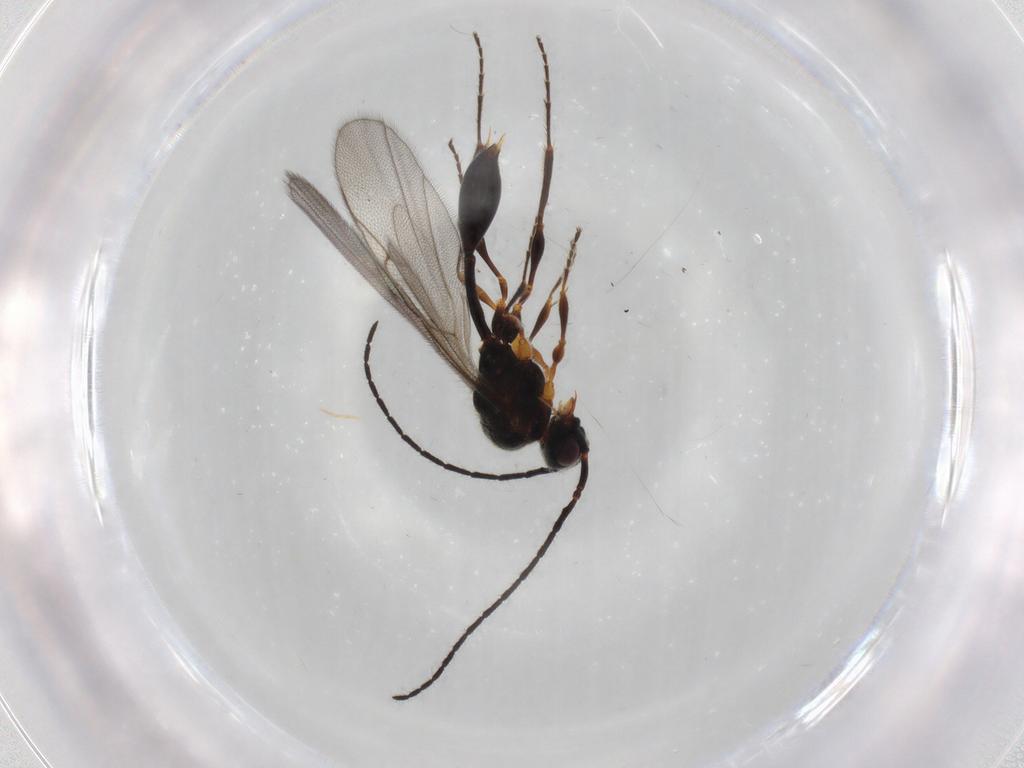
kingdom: Animalia
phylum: Arthropoda
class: Insecta
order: Hymenoptera
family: Diapriidae
